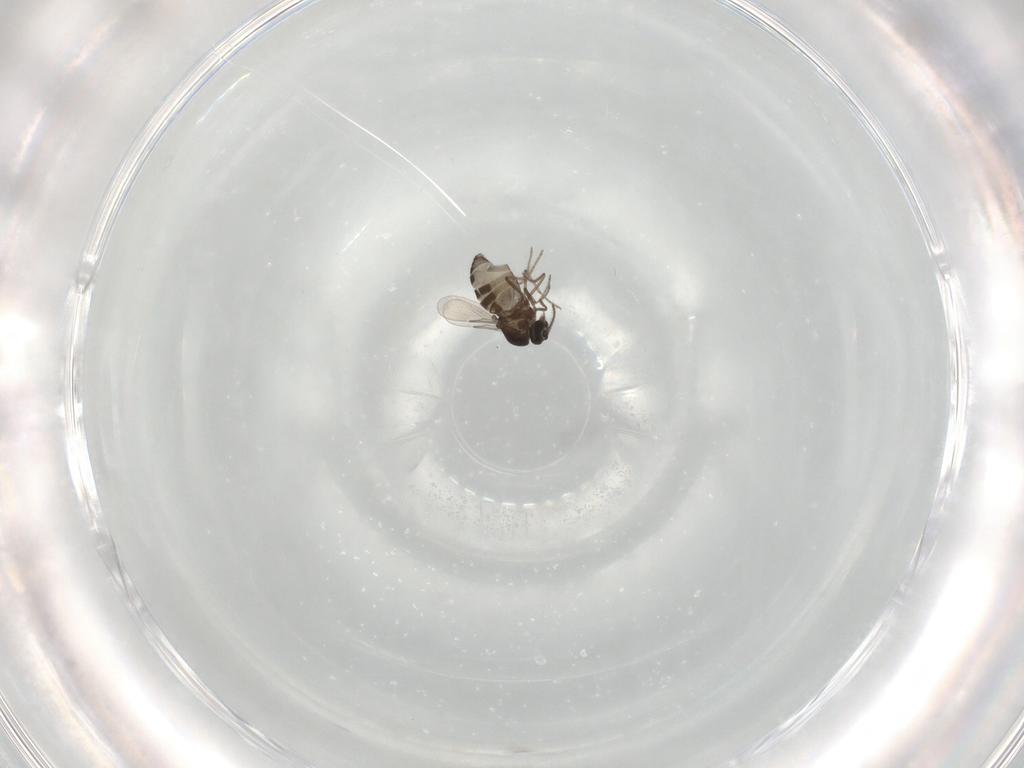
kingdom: Animalia
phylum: Arthropoda
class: Insecta
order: Diptera
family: Ceratopogonidae
